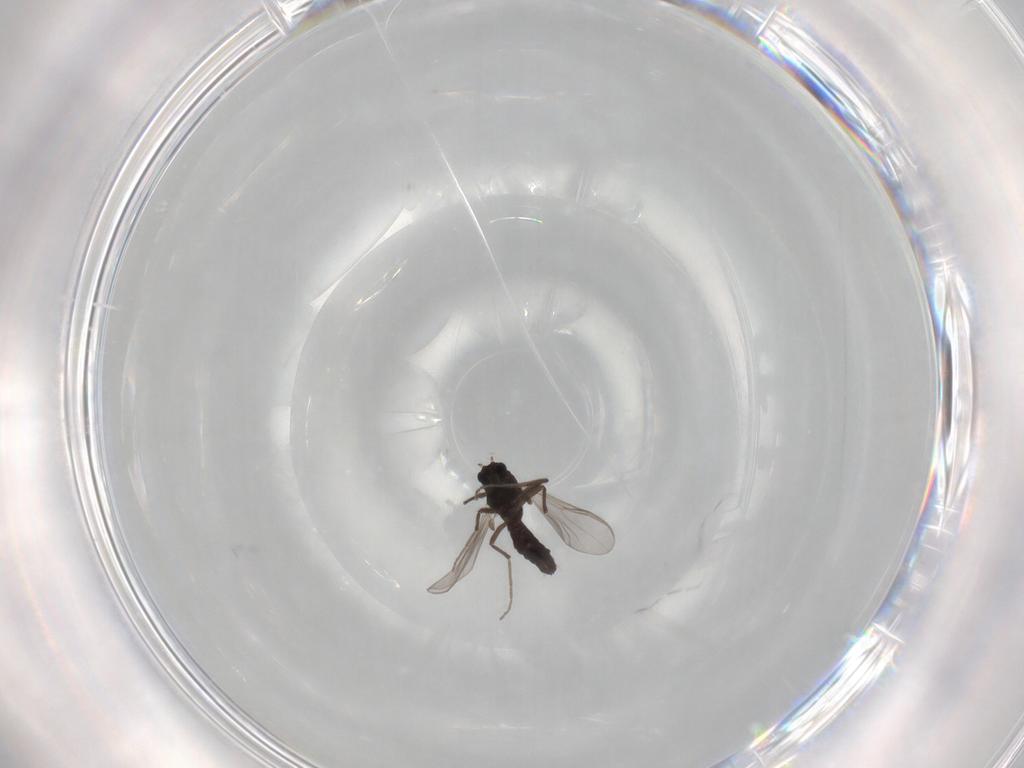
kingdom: Animalia
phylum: Arthropoda
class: Insecta
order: Diptera
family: Chironomidae
